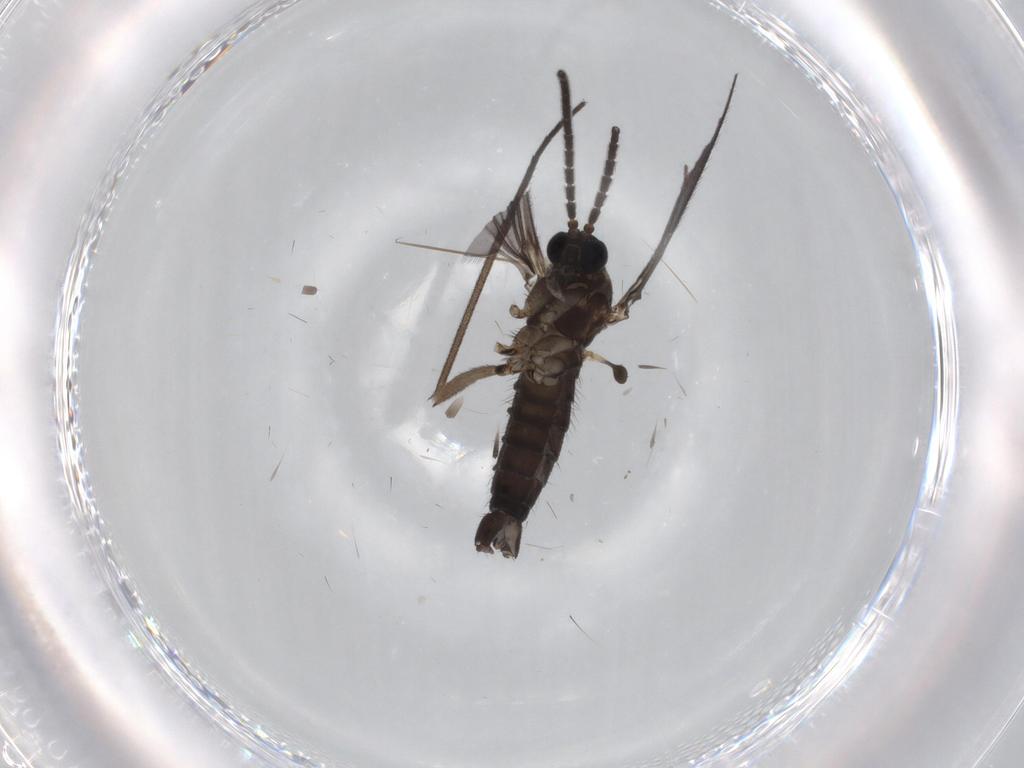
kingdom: Animalia
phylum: Arthropoda
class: Insecta
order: Diptera
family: Sciaridae
